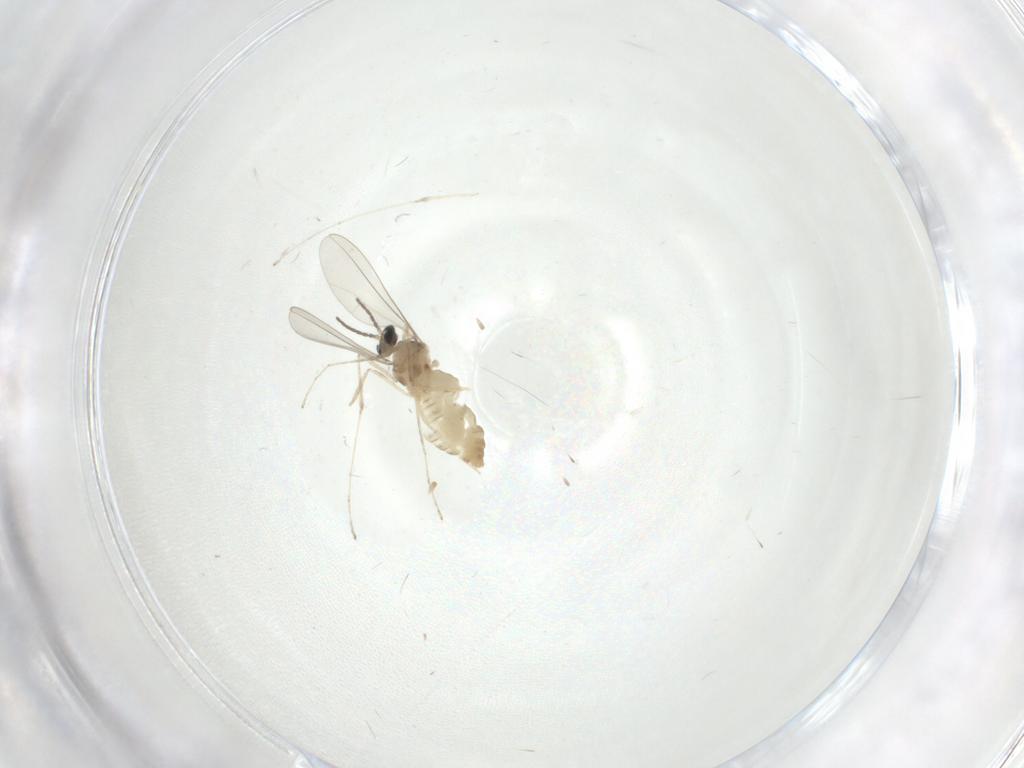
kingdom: Animalia
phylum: Arthropoda
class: Insecta
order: Diptera
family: Cecidomyiidae
